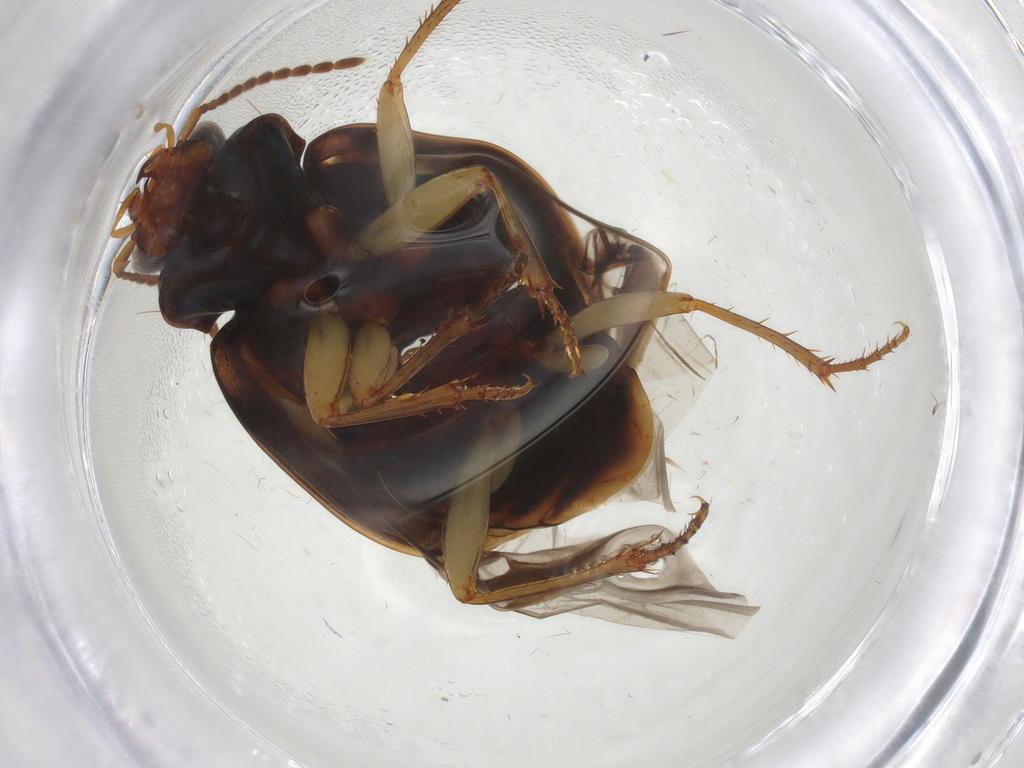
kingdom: Animalia
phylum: Arthropoda
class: Insecta
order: Coleoptera
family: Carabidae
